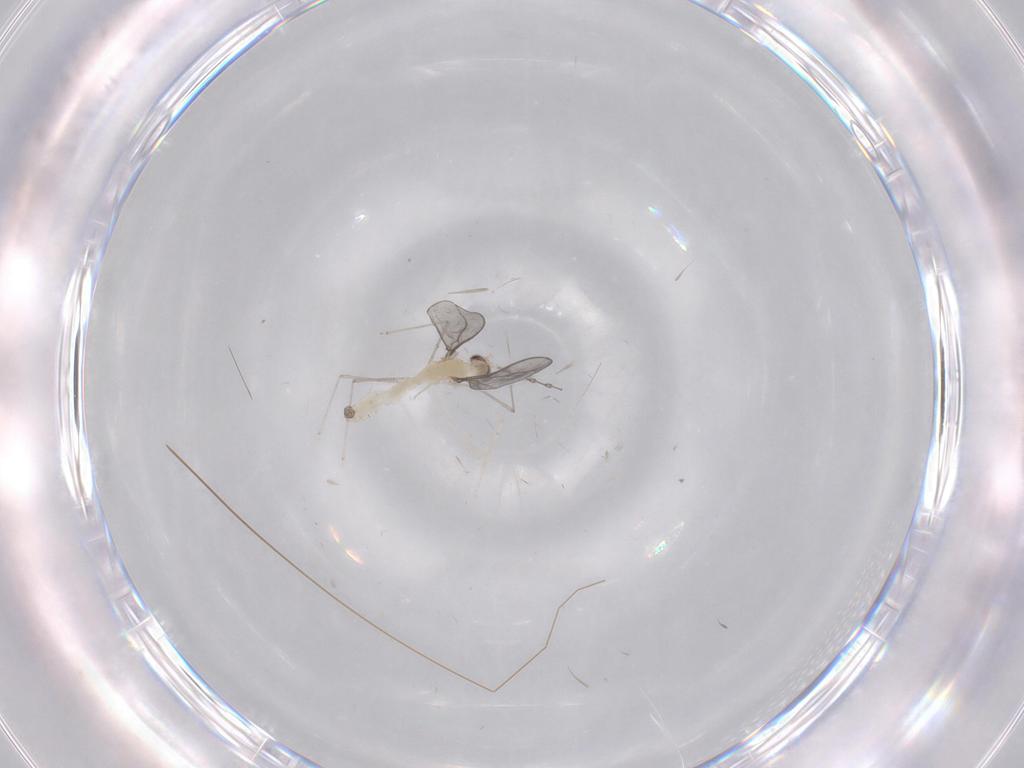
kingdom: Animalia
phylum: Arthropoda
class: Insecta
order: Diptera
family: Cecidomyiidae
